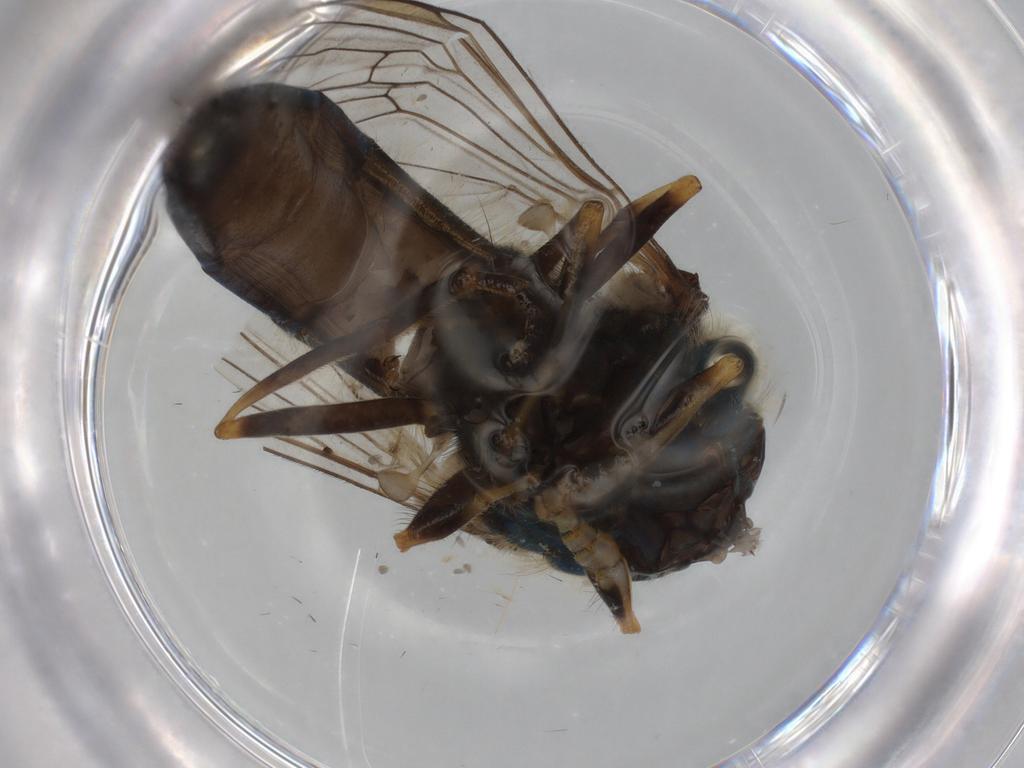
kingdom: Animalia
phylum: Arthropoda
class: Insecta
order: Diptera
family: Syrphidae
